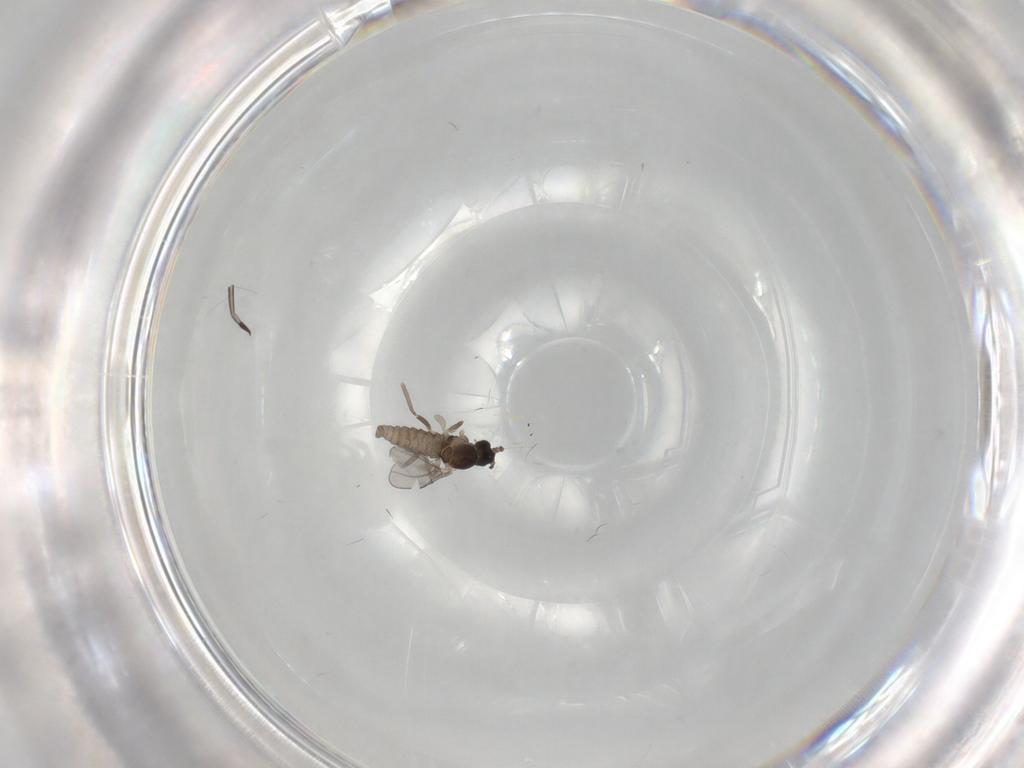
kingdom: Animalia
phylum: Arthropoda
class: Insecta
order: Diptera
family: Cecidomyiidae
